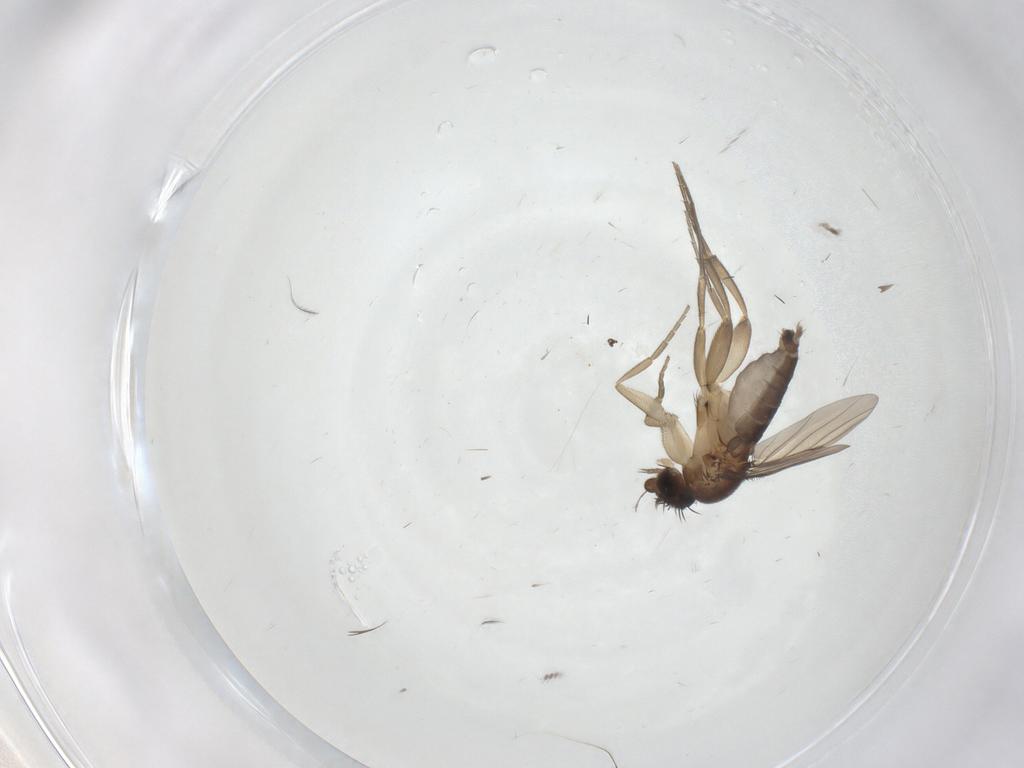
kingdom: Animalia
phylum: Arthropoda
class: Insecta
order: Diptera
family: Phoridae
